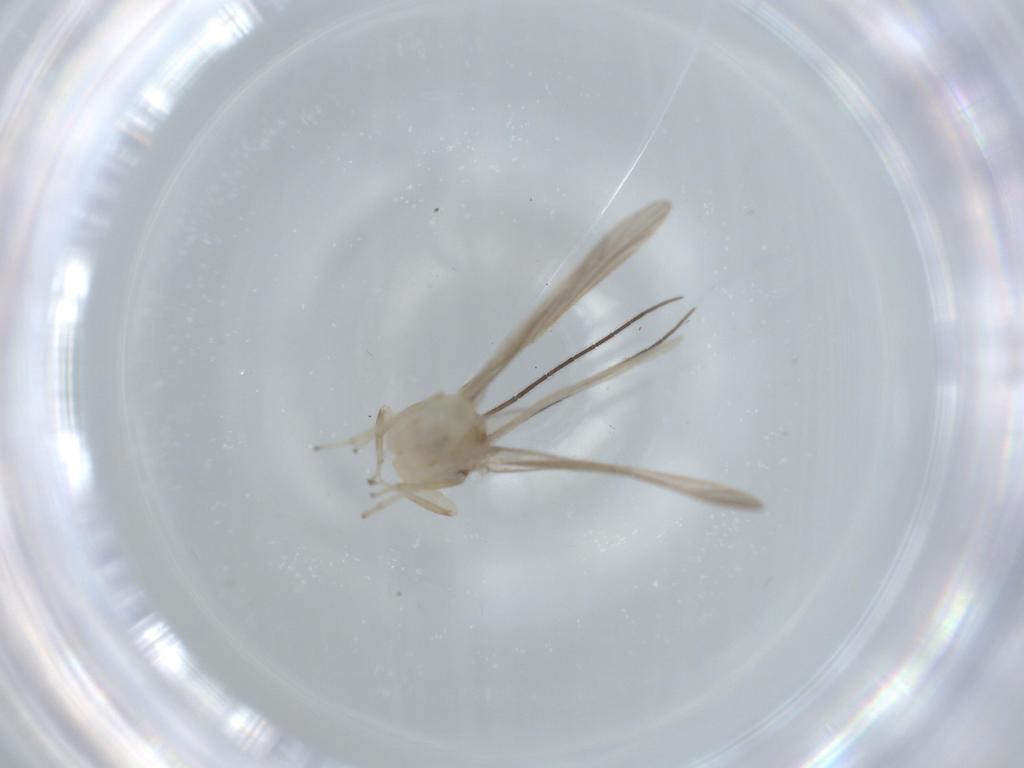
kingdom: Animalia
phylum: Arthropoda
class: Insecta
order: Psocodea
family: Caeciliusidae
